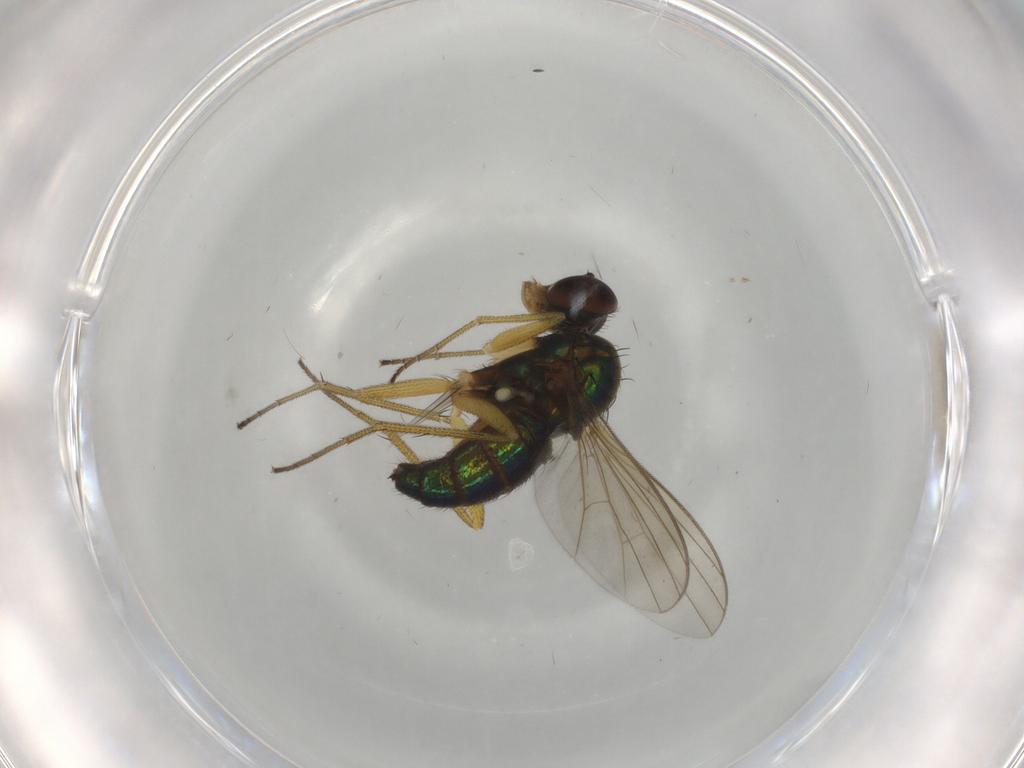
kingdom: Animalia
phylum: Arthropoda
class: Insecta
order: Diptera
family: Dolichopodidae
